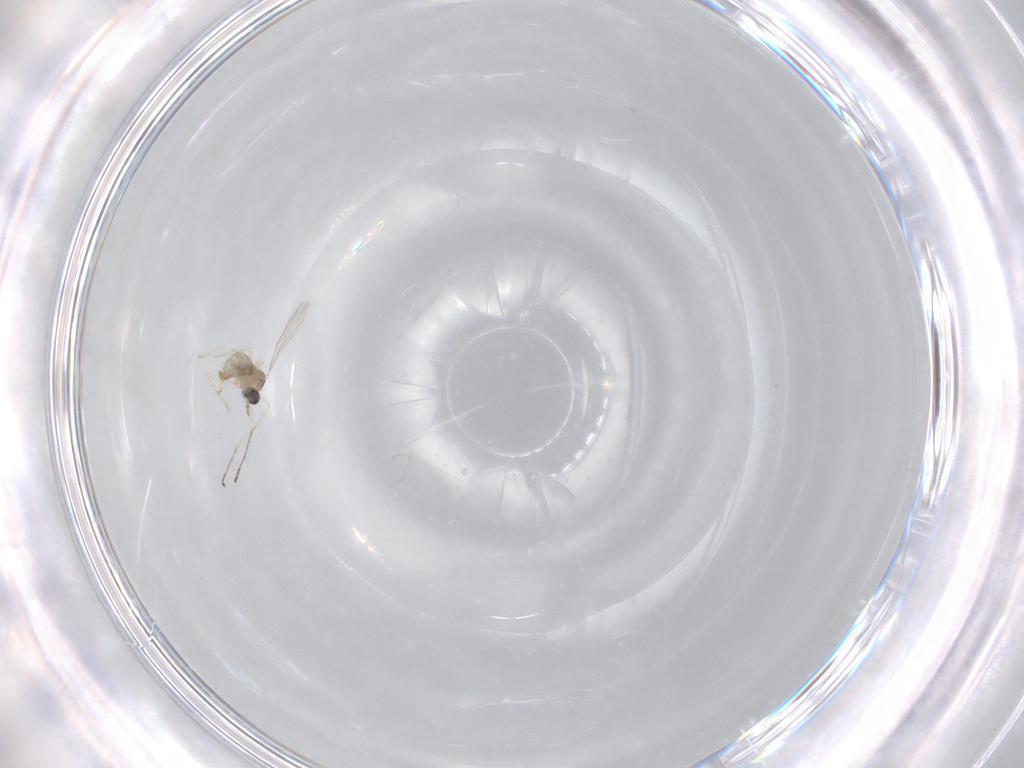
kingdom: Animalia
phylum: Arthropoda
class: Insecta
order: Diptera
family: Cecidomyiidae
